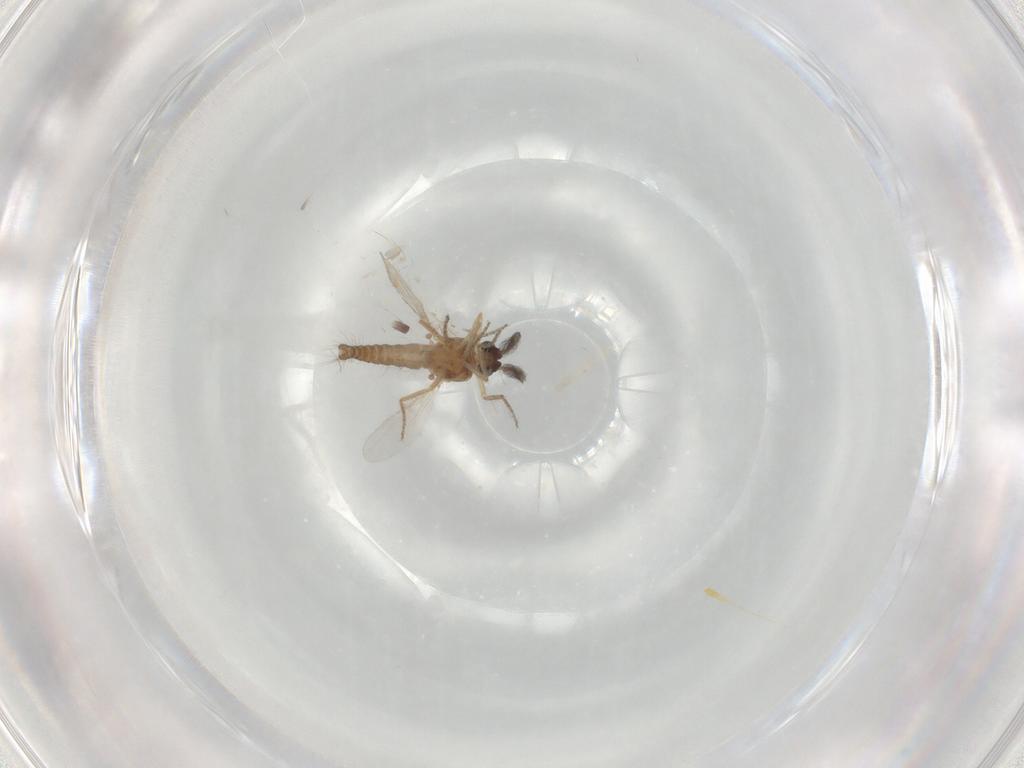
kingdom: Animalia
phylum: Arthropoda
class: Insecta
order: Diptera
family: Ceratopogonidae
